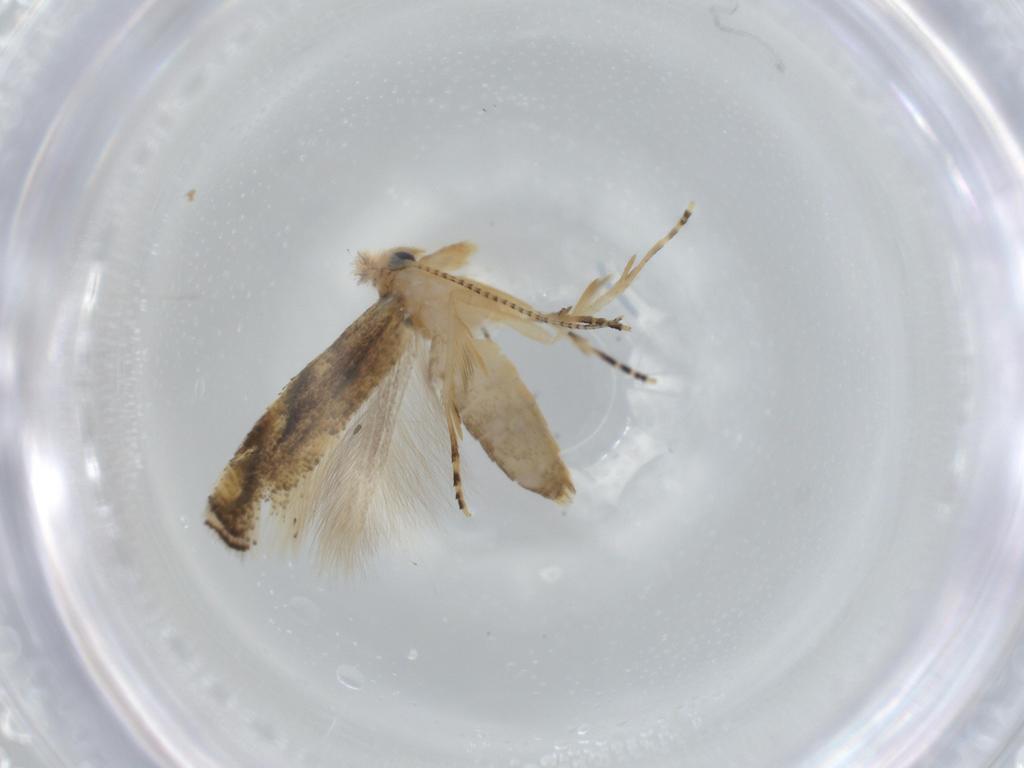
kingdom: Animalia
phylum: Arthropoda
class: Insecta
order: Lepidoptera
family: Bucculatricidae
